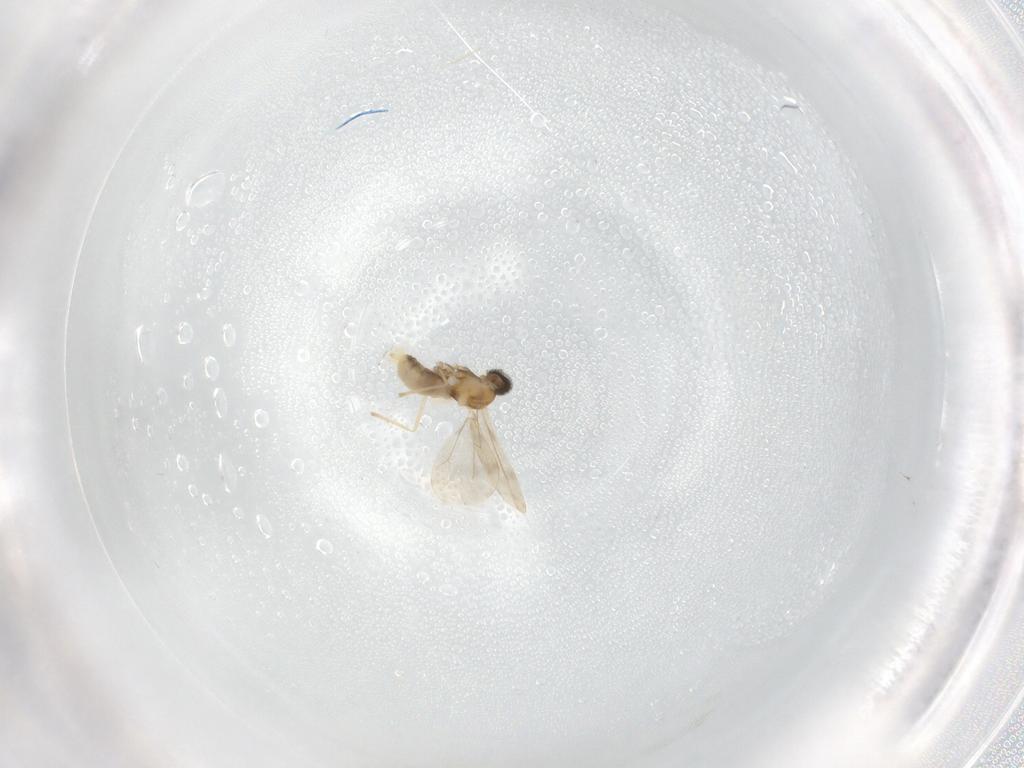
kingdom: Animalia
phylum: Arthropoda
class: Insecta
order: Diptera
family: Cecidomyiidae
